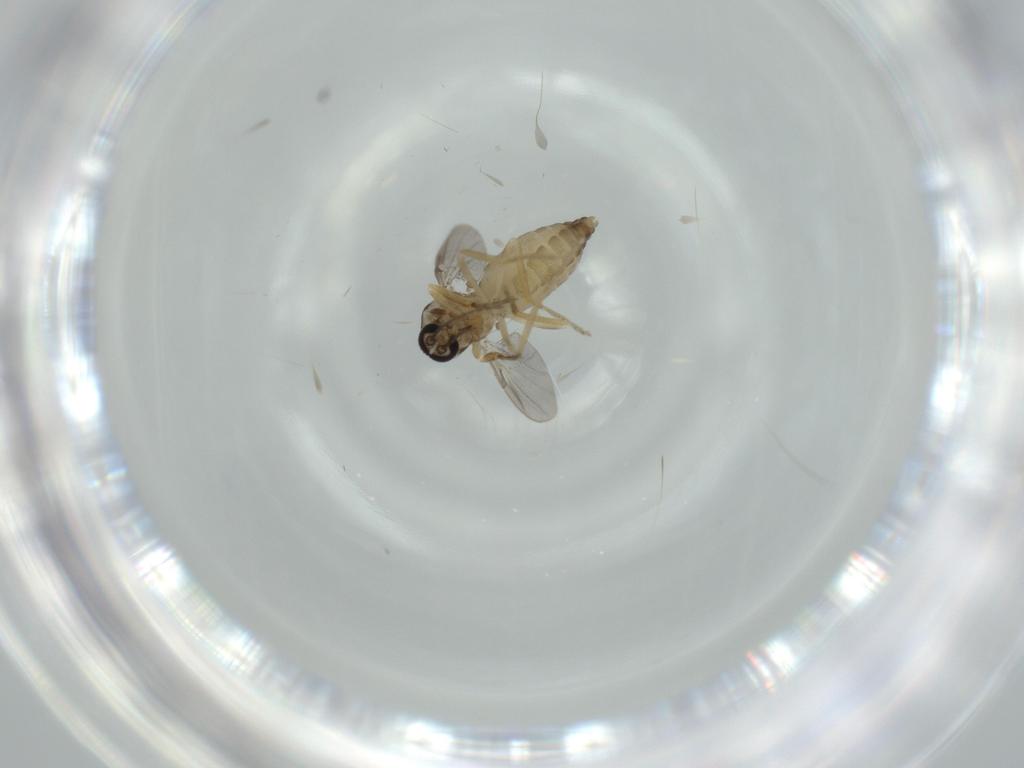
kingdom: Animalia
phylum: Arthropoda
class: Insecta
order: Diptera
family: Ceratopogonidae
